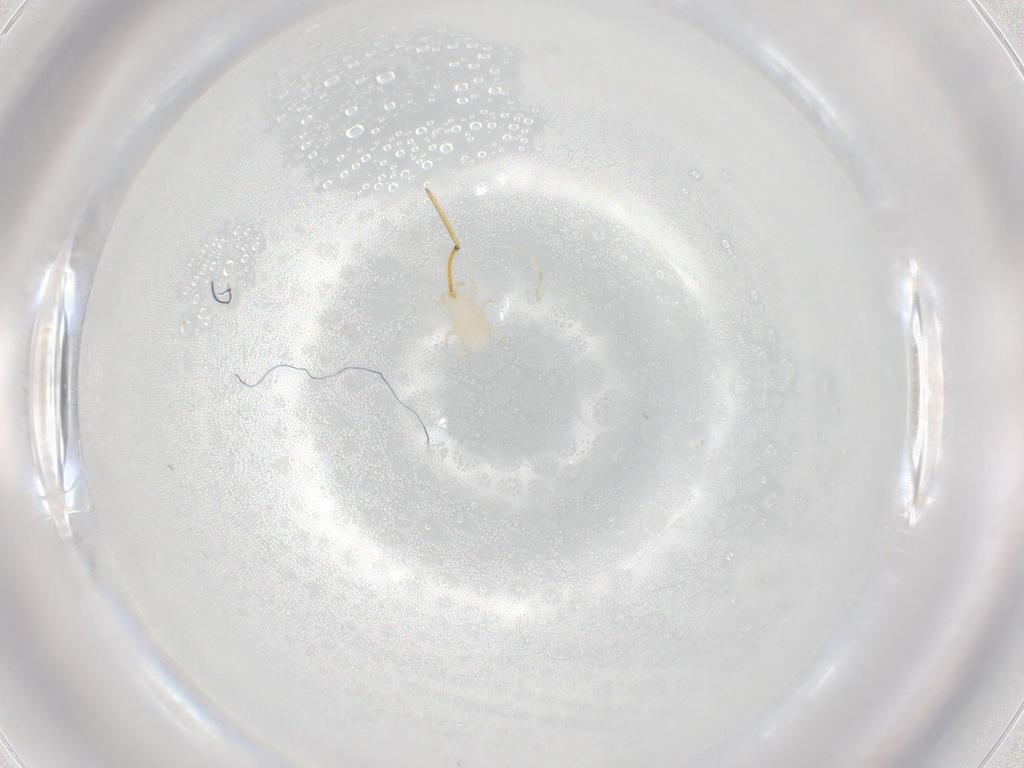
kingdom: Animalia
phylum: Arthropoda
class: Arachnida
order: Mesostigmata
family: Melicharidae
